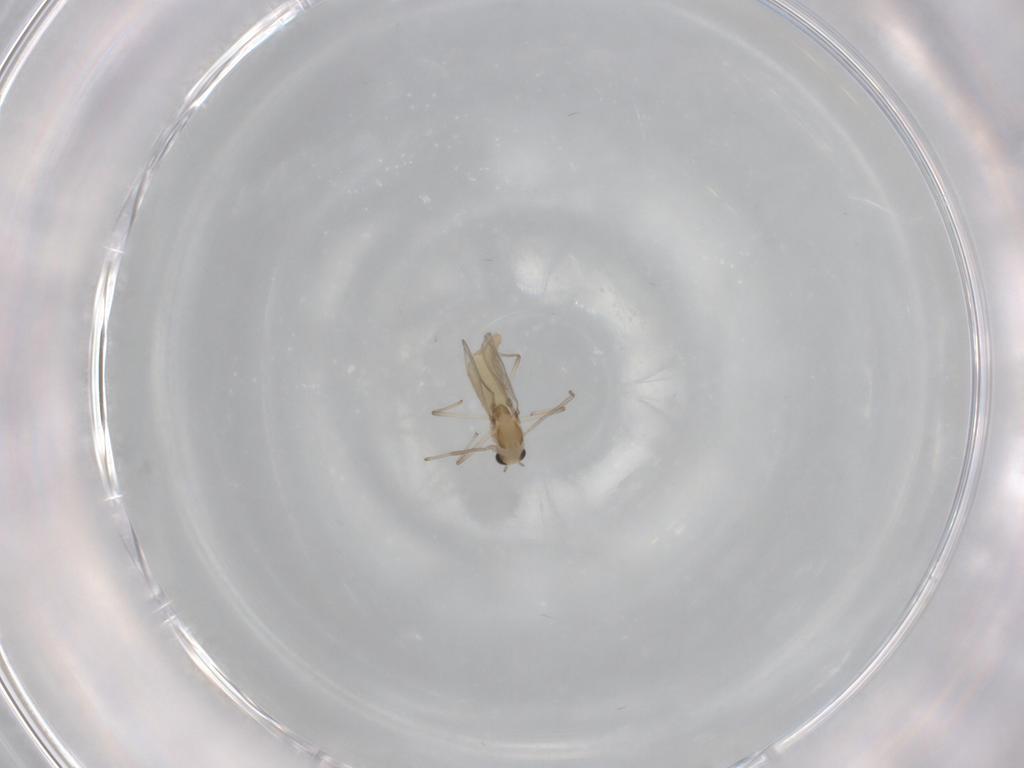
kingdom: Animalia
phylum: Arthropoda
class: Insecta
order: Diptera
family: Chironomidae
